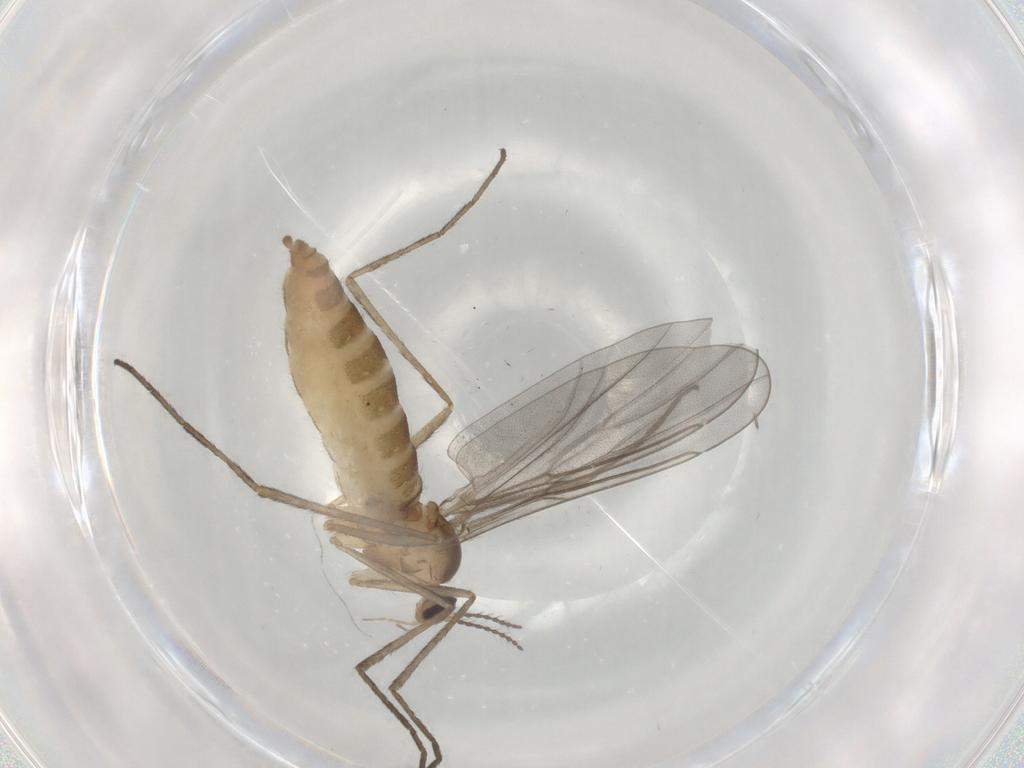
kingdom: Animalia
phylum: Arthropoda
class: Insecta
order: Diptera
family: Cecidomyiidae
